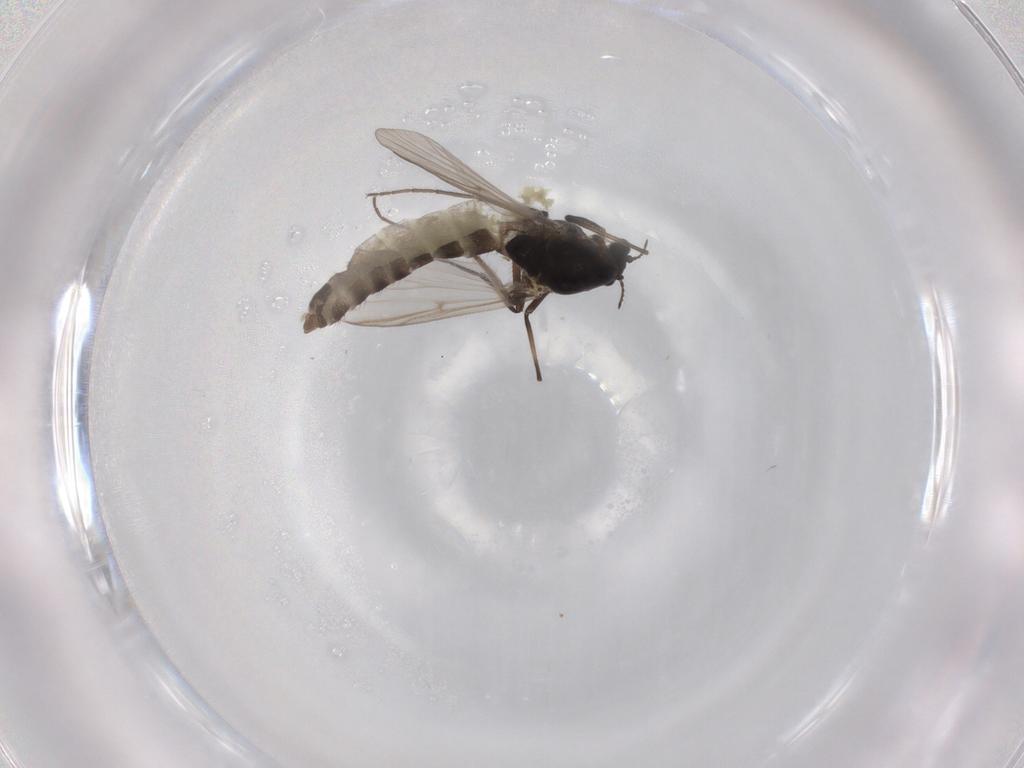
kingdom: Animalia
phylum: Arthropoda
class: Insecta
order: Diptera
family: Chironomidae
